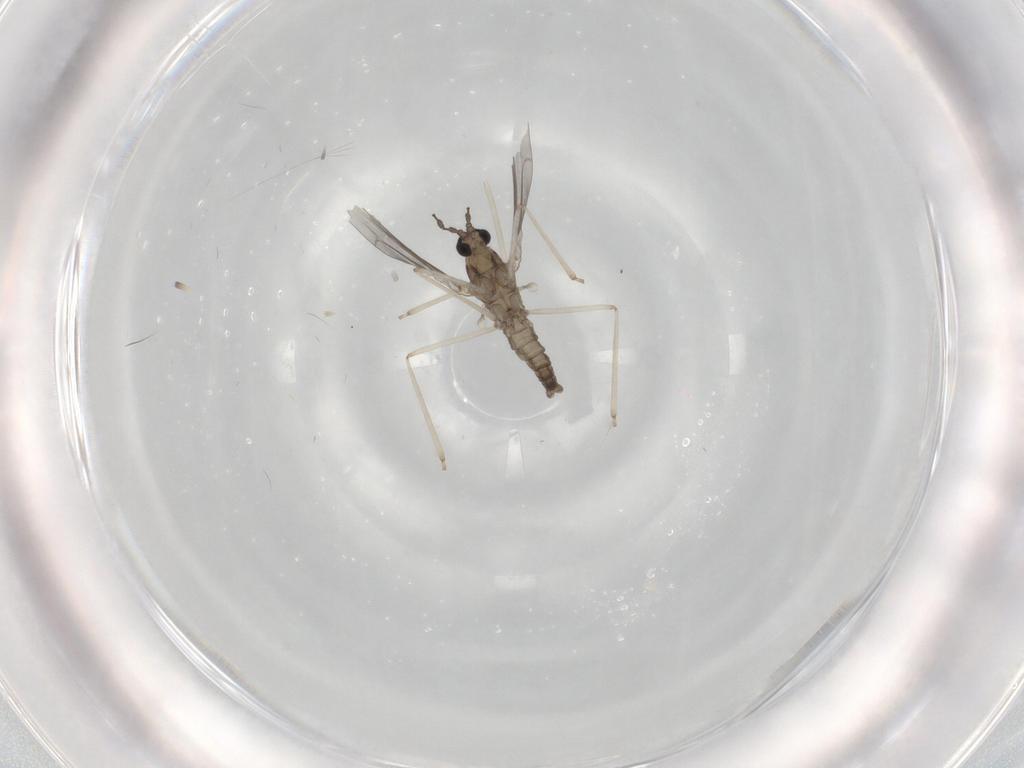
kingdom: Animalia
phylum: Arthropoda
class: Insecta
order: Diptera
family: Cecidomyiidae
